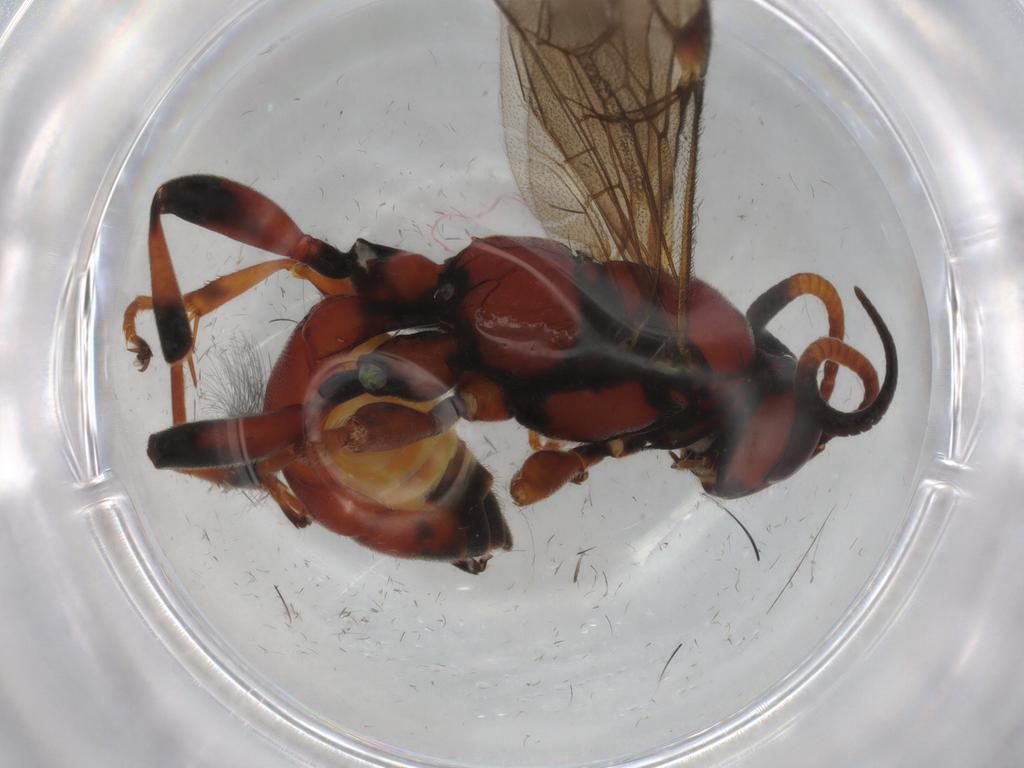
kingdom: Animalia
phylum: Arthropoda
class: Insecta
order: Hymenoptera
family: Ichneumonidae
